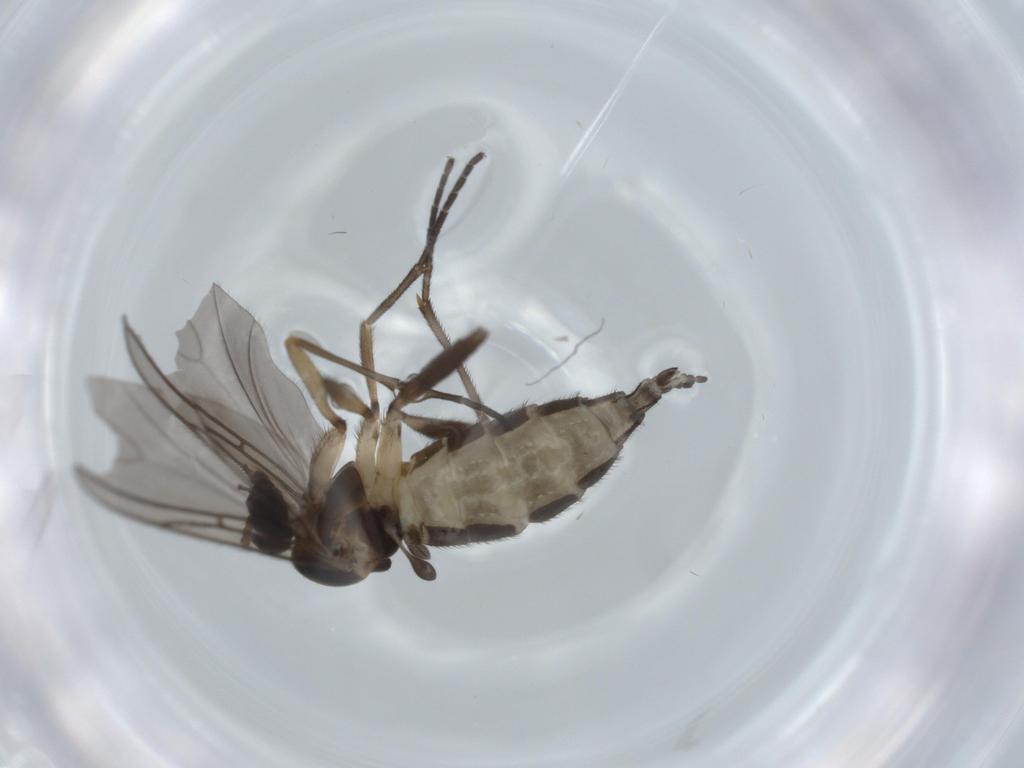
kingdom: Animalia
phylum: Arthropoda
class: Insecta
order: Diptera
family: Sciaridae
